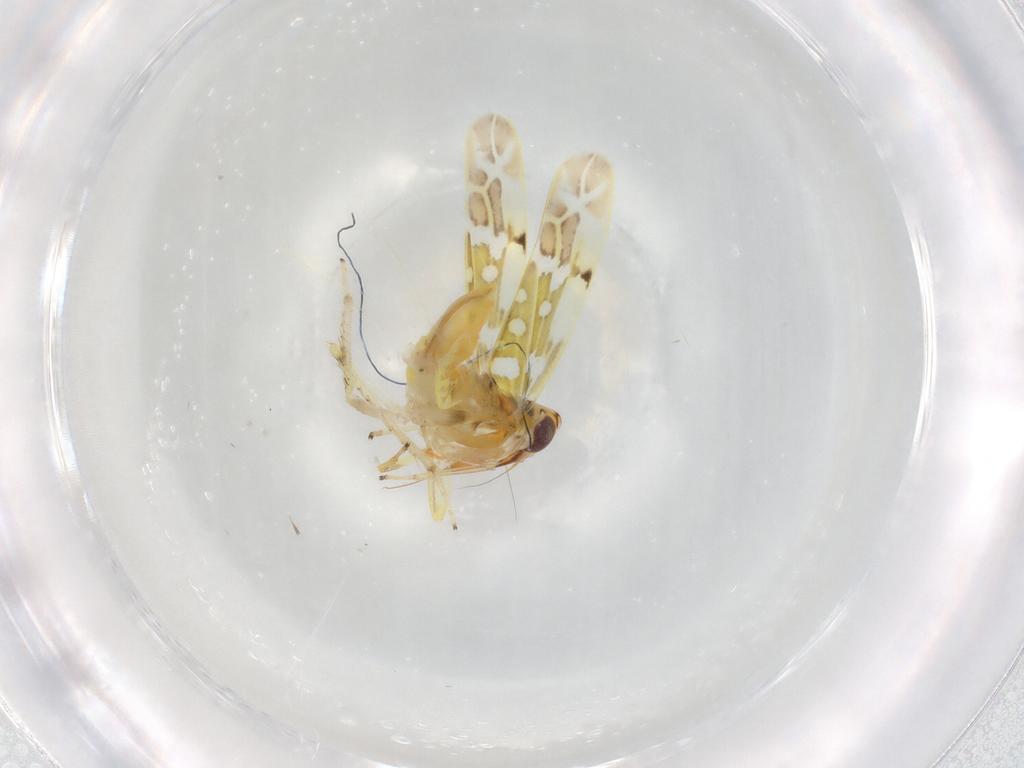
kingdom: Animalia
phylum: Arthropoda
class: Insecta
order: Hemiptera
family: Cicadellidae
